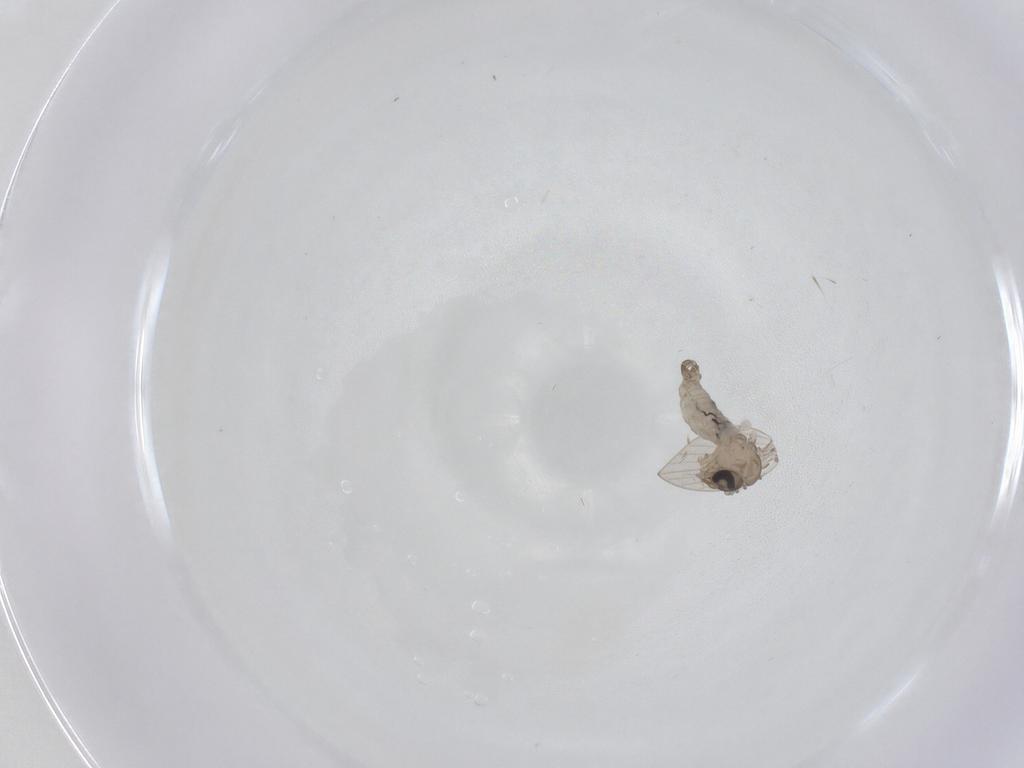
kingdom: Animalia
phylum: Arthropoda
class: Insecta
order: Diptera
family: Psychodidae
